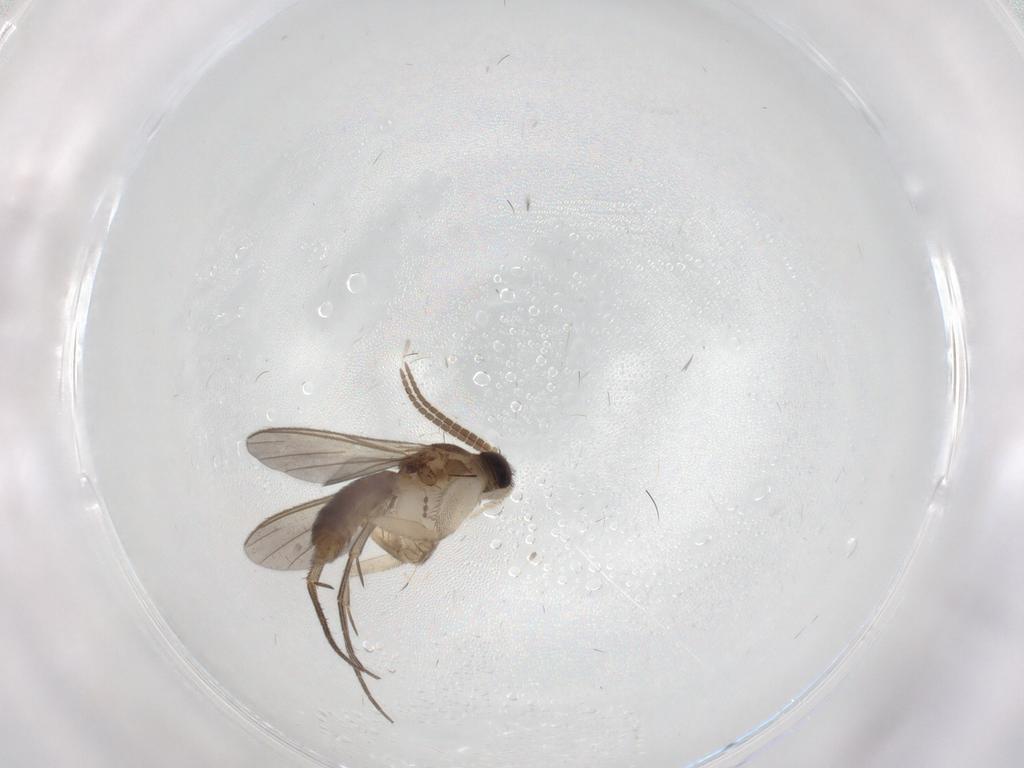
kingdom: Animalia
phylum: Arthropoda
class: Insecta
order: Diptera
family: Mycetophilidae
